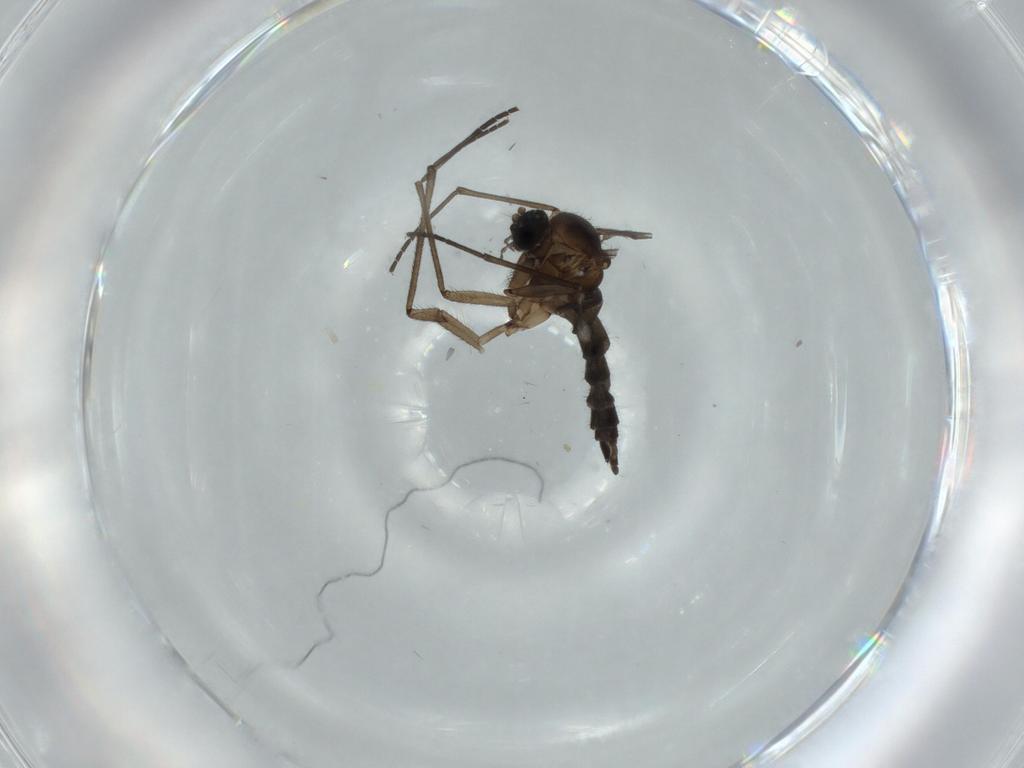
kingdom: Animalia
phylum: Arthropoda
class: Insecta
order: Diptera
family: Sciaridae
